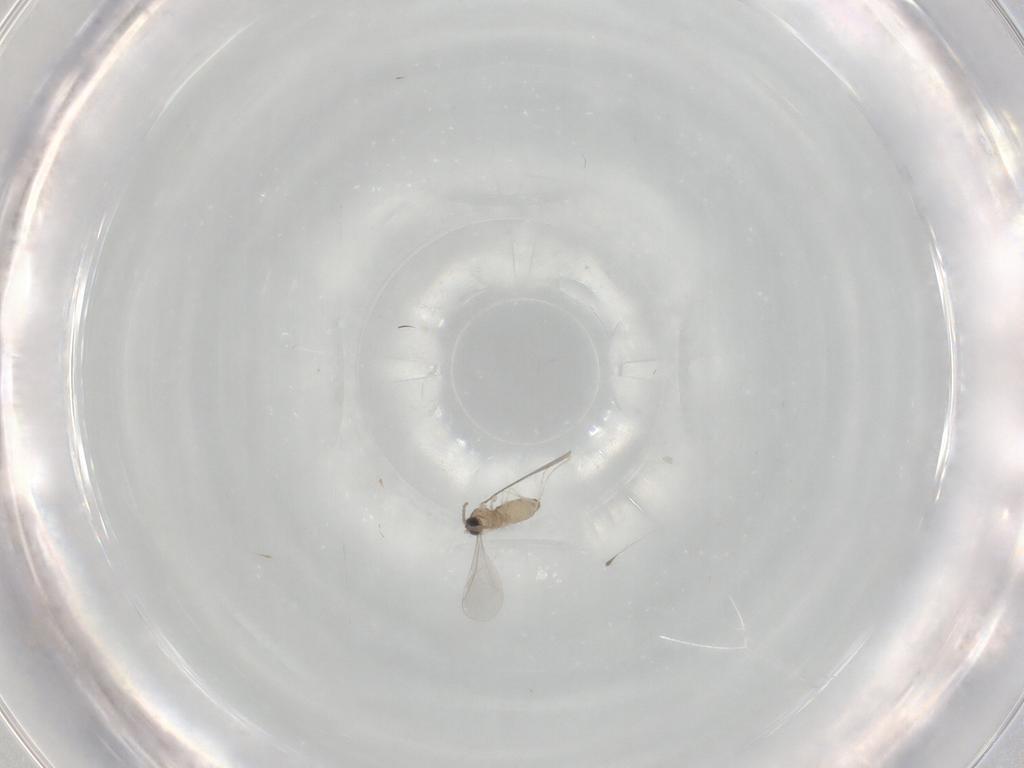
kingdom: Animalia
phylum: Arthropoda
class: Insecta
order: Diptera
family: Cecidomyiidae
